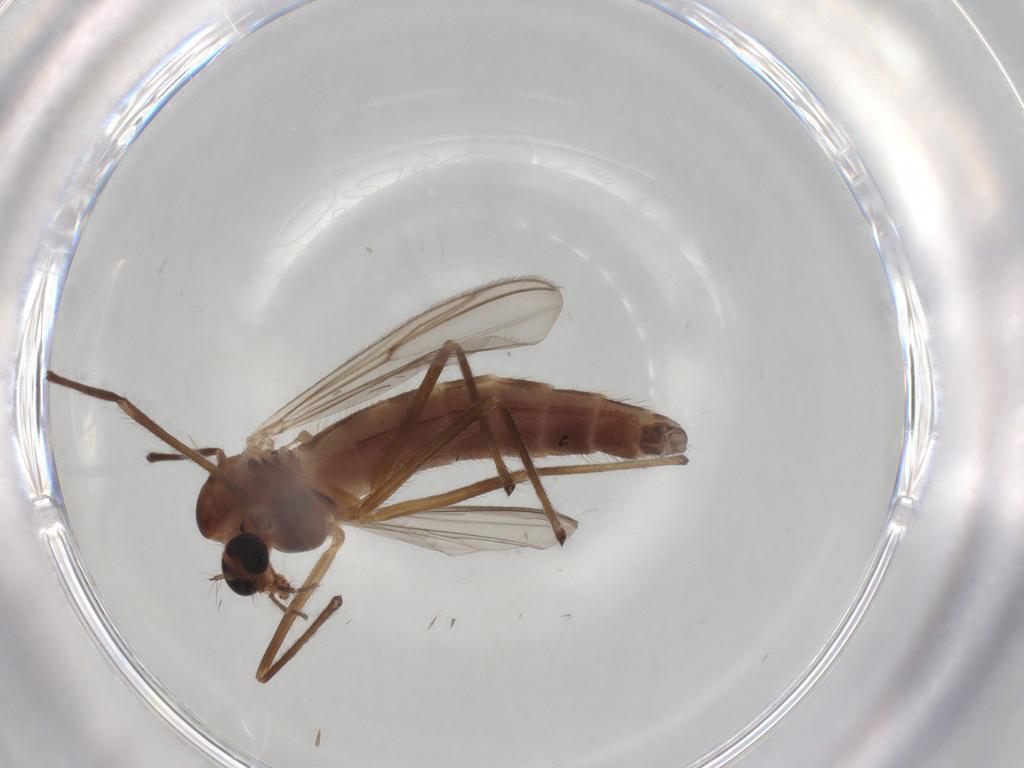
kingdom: Animalia
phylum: Arthropoda
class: Insecta
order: Diptera
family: Chironomidae
